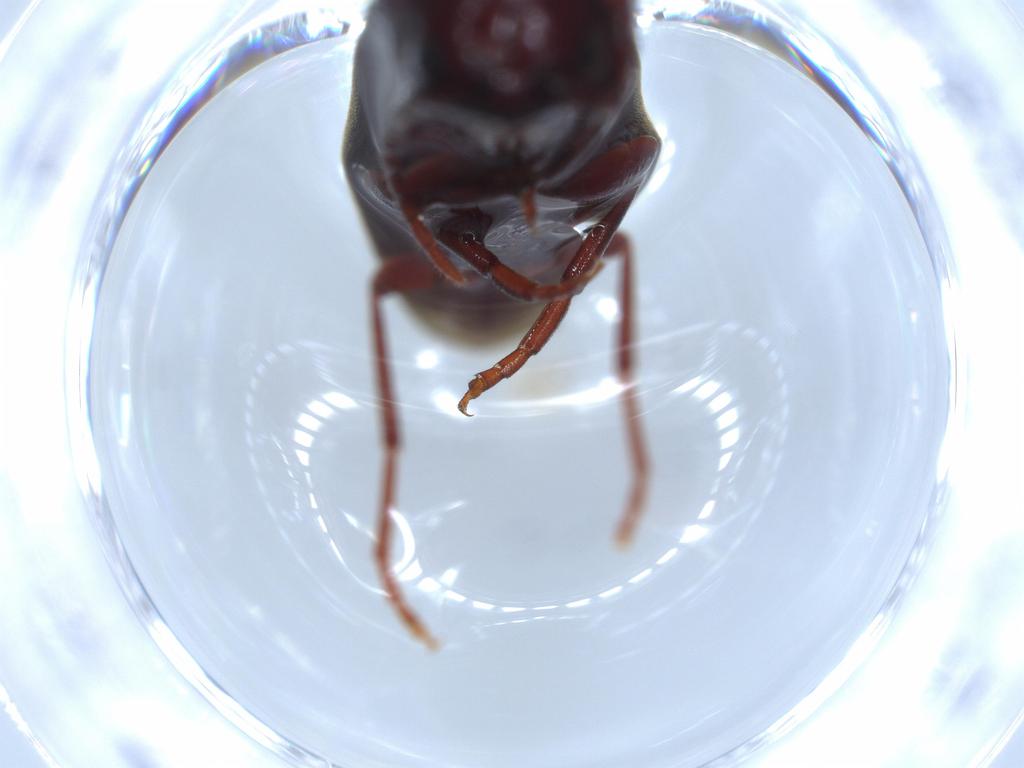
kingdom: Animalia
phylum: Arthropoda
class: Insecta
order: Coleoptera
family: Eucnemidae
